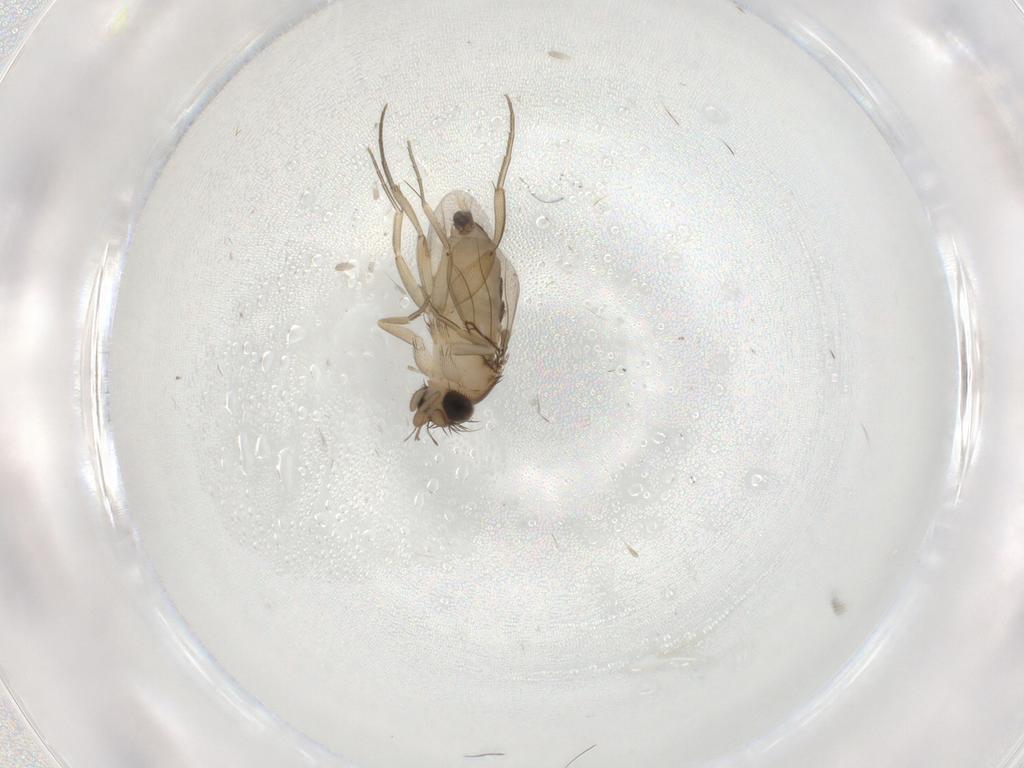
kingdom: Animalia
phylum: Arthropoda
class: Insecta
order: Diptera
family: Phoridae
